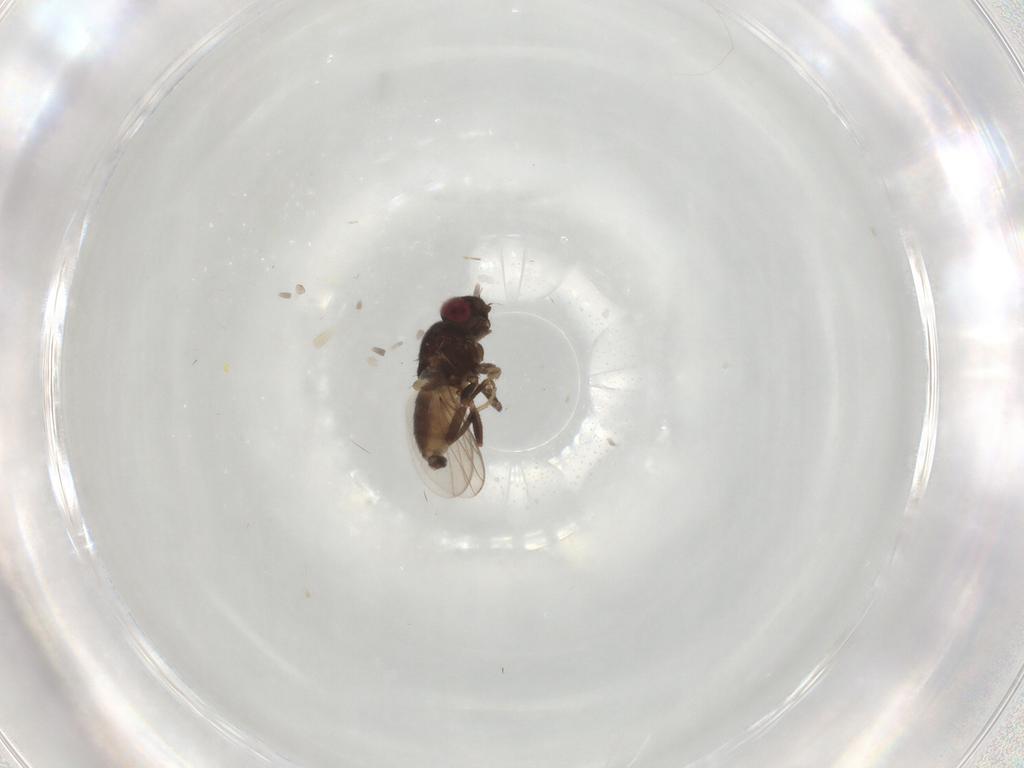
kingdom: Animalia
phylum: Arthropoda
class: Insecta
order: Diptera
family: Chloropidae
